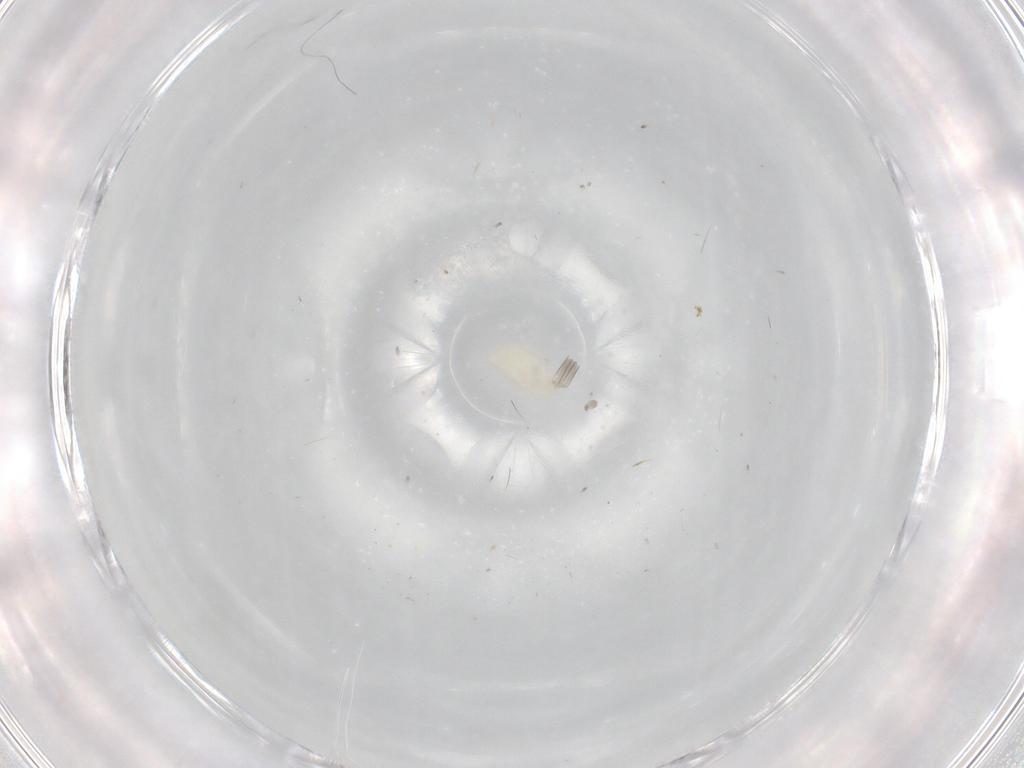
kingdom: Animalia
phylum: Arthropoda
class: Insecta
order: Psocodea
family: Lepidopsocidae
